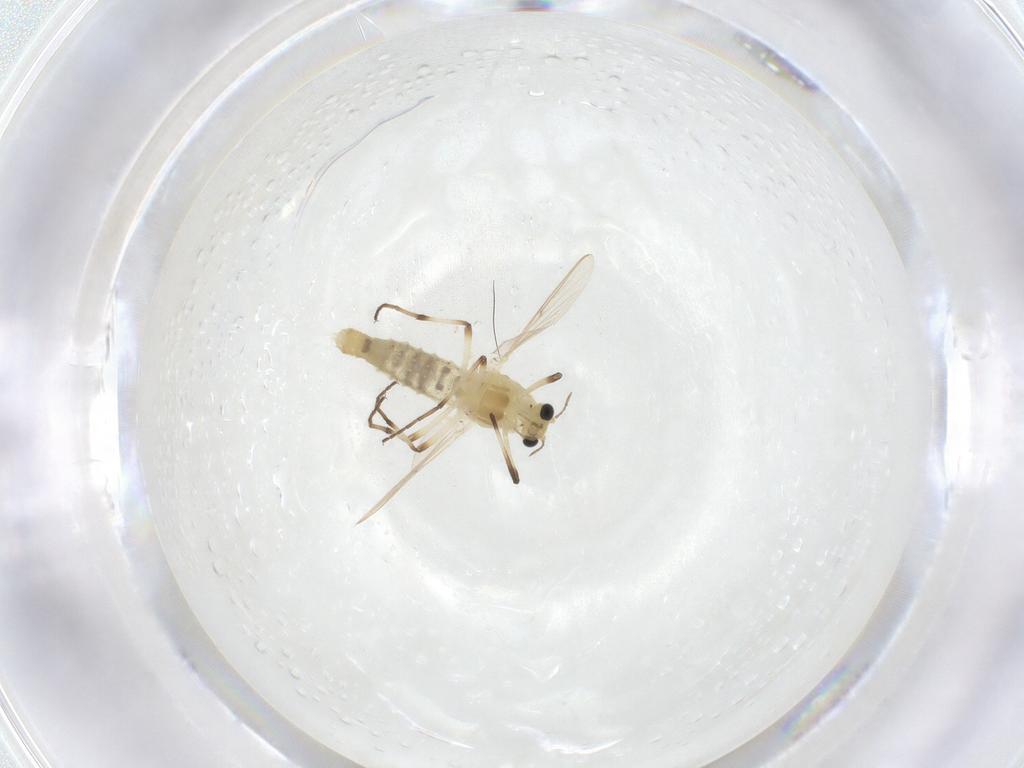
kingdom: Animalia
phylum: Arthropoda
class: Insecta
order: Diptera
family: Chironomidae
